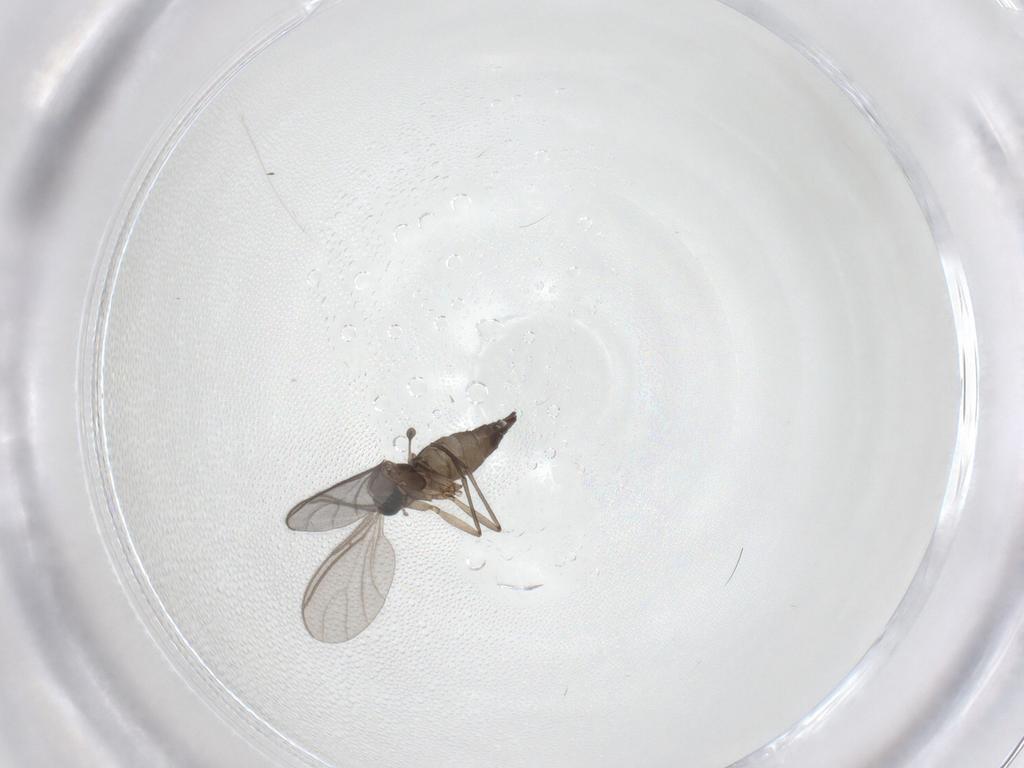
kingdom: Animalia
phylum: Arthropoda
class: Insecta
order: Diptera
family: Sciaridae
